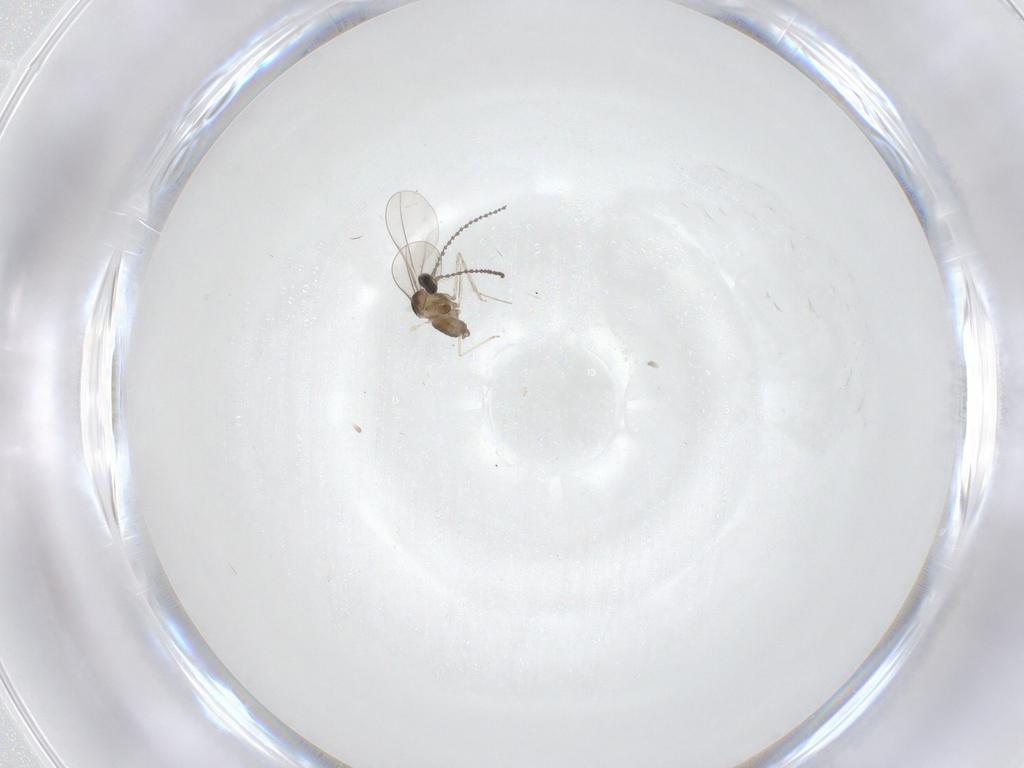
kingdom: Animalia
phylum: Arthropoda
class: Insecta
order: Diptera
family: Cecidomyiidae
